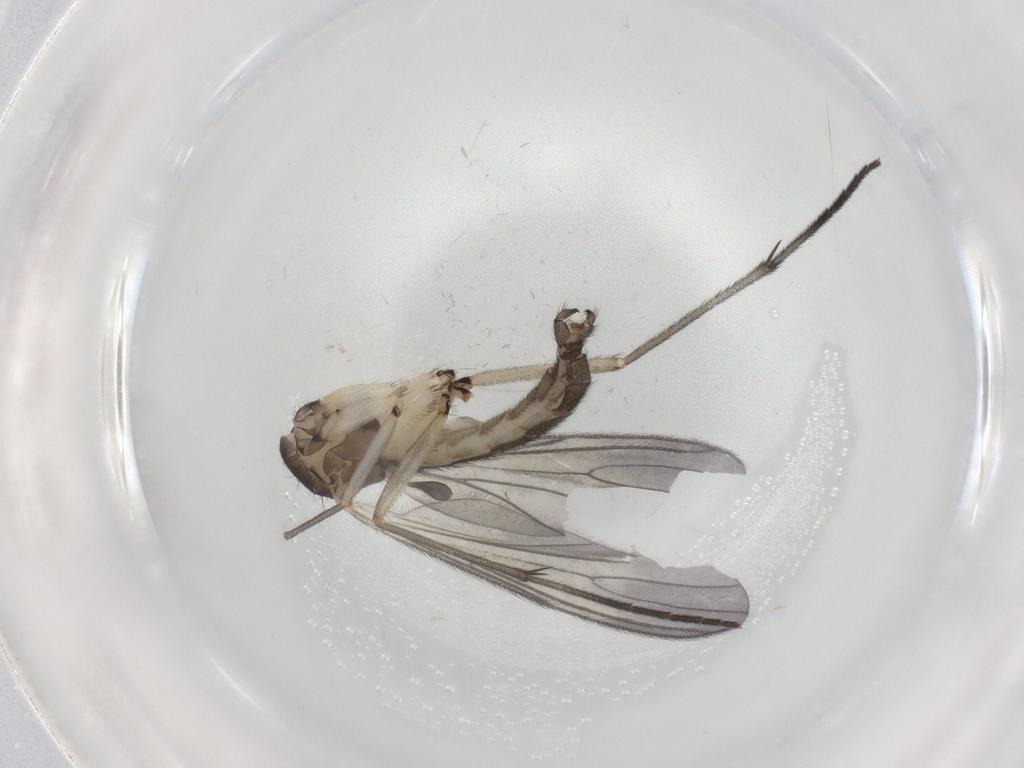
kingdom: Animalia
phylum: Arthropoda
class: Insecta
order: Diptera
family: Sciaridae
